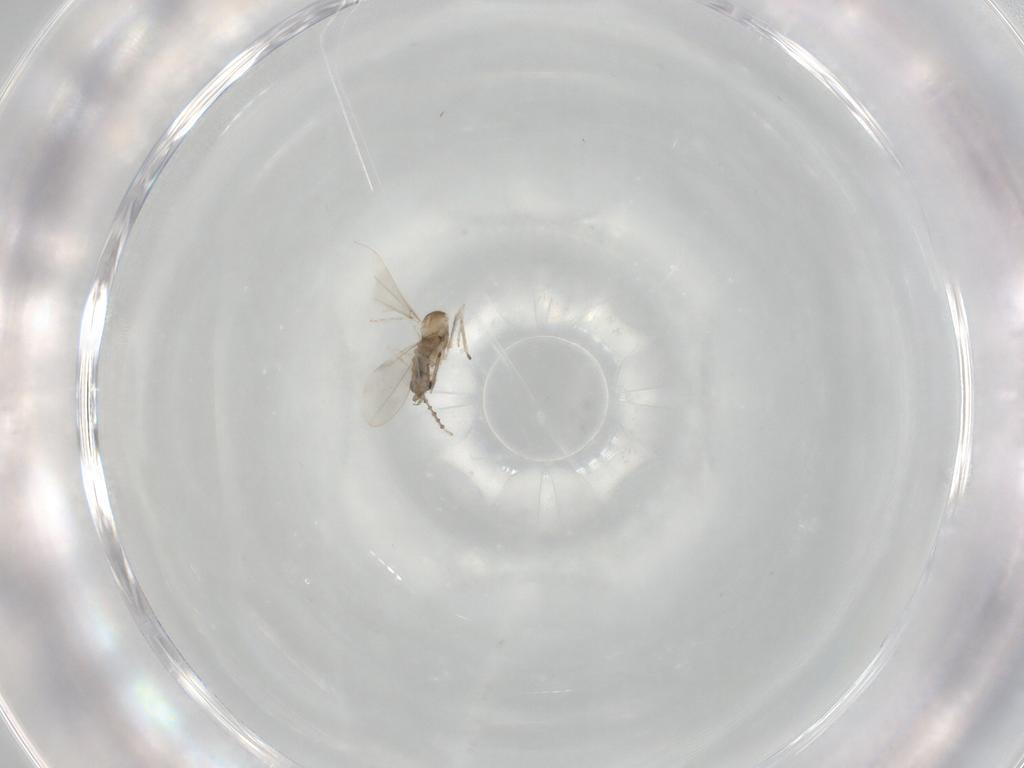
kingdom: Animalia
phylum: Arthropoda
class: Insecta
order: Diptera
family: Cecidomyiidae
